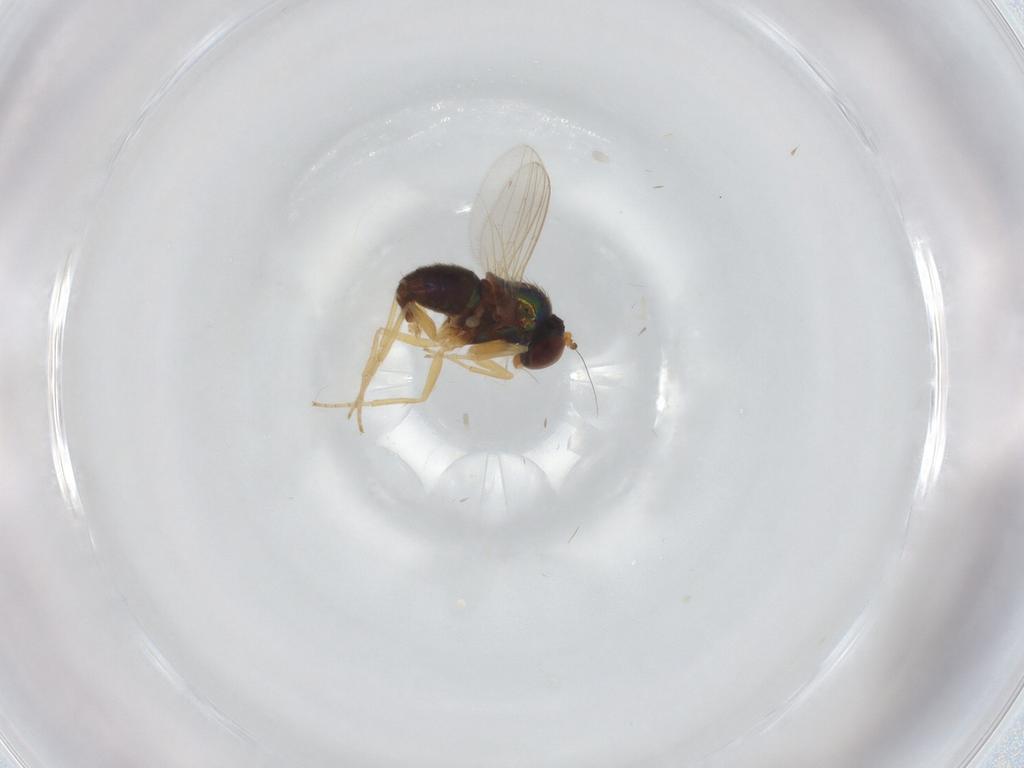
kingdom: Animalia
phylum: Arthropoda
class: Insecta
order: Diptera
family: Dolichopodidae
